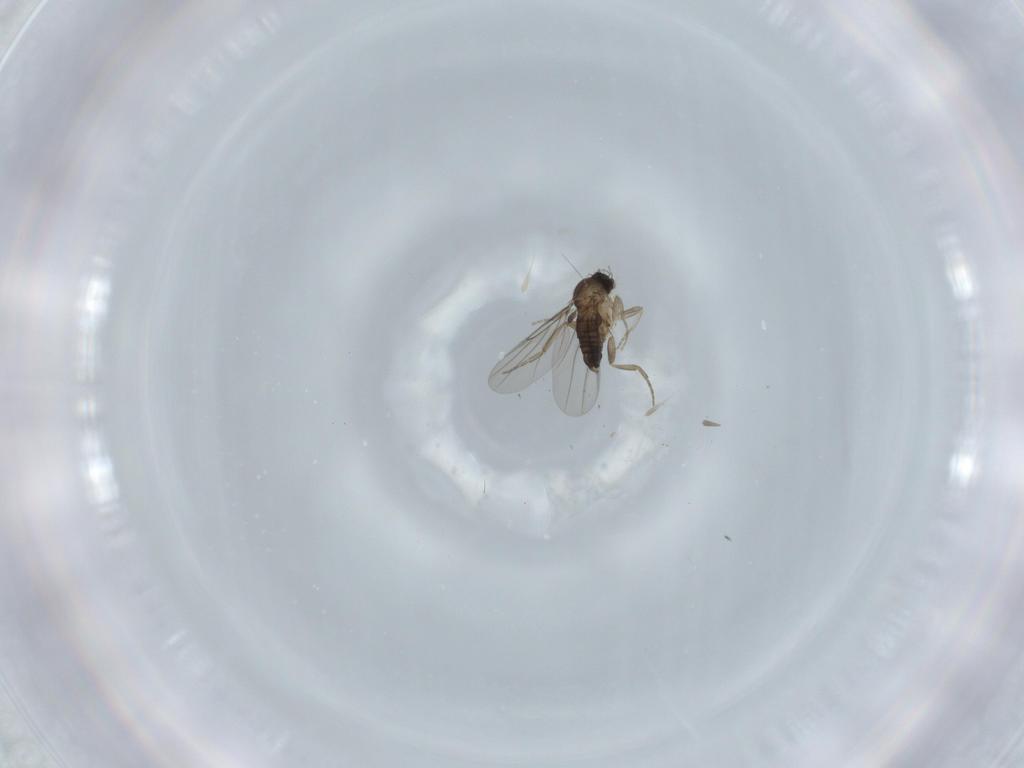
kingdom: Animalia
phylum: Arthropoda
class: Insecta
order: Diptera
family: Phoridae
